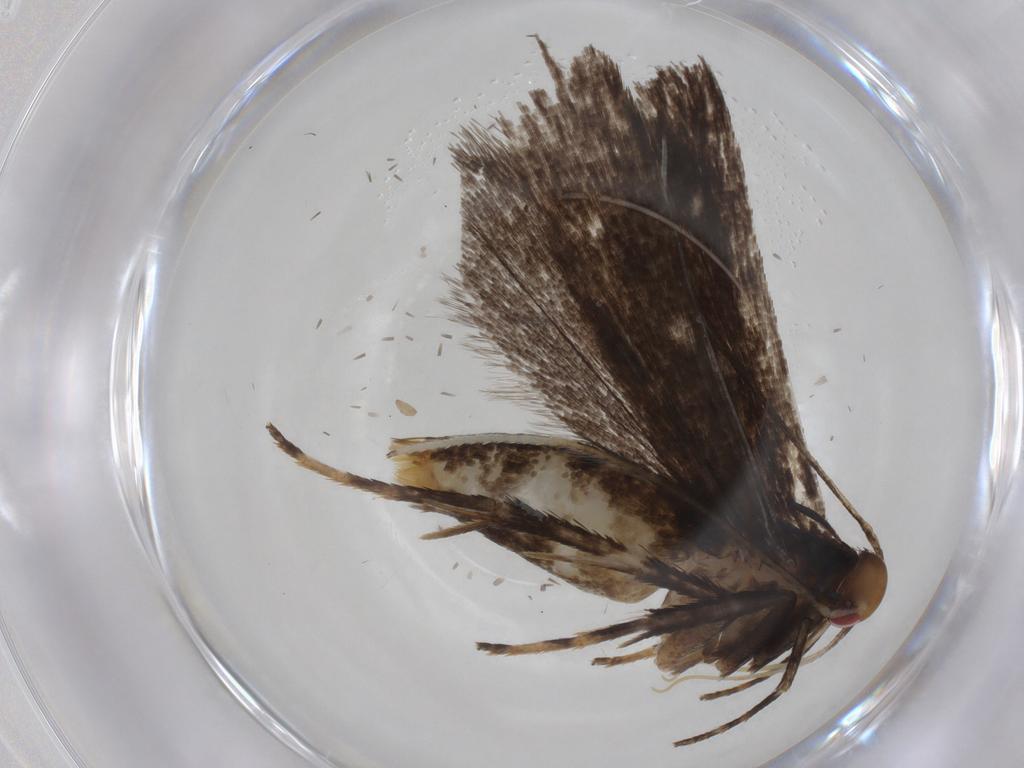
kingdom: Animalia
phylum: Arthropoda
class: Insecta
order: Lepidoptera
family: Gelechiidae
